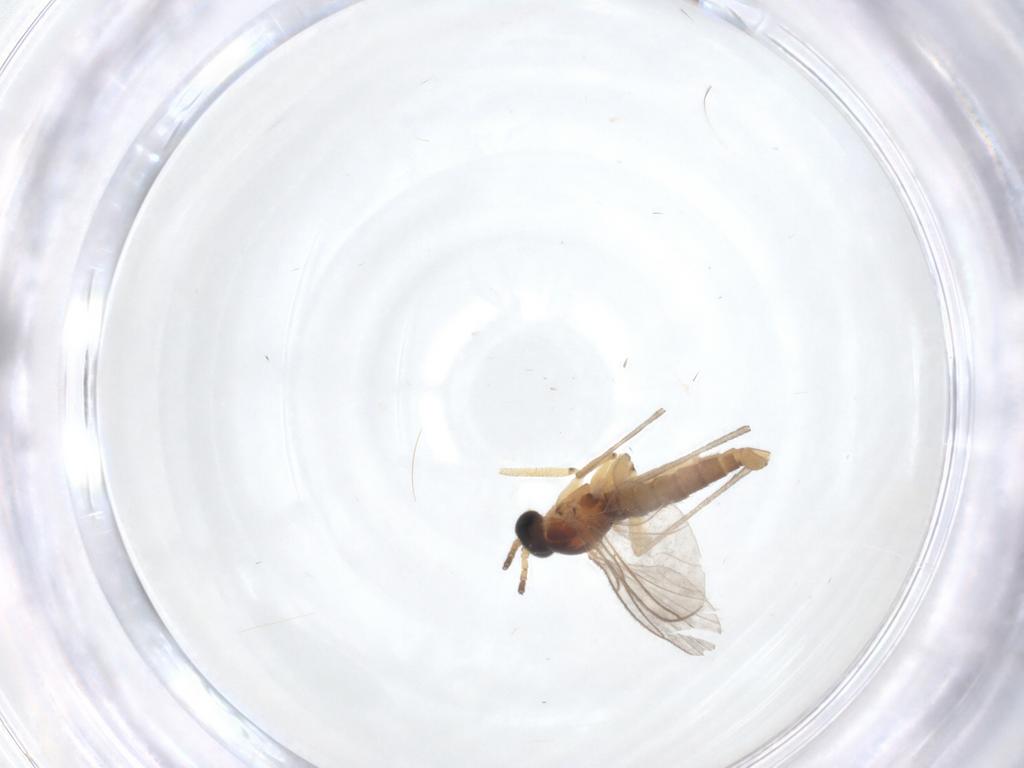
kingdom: Animalia
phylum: Arthropoda
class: Insecta
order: Diptera
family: Sciaridae
